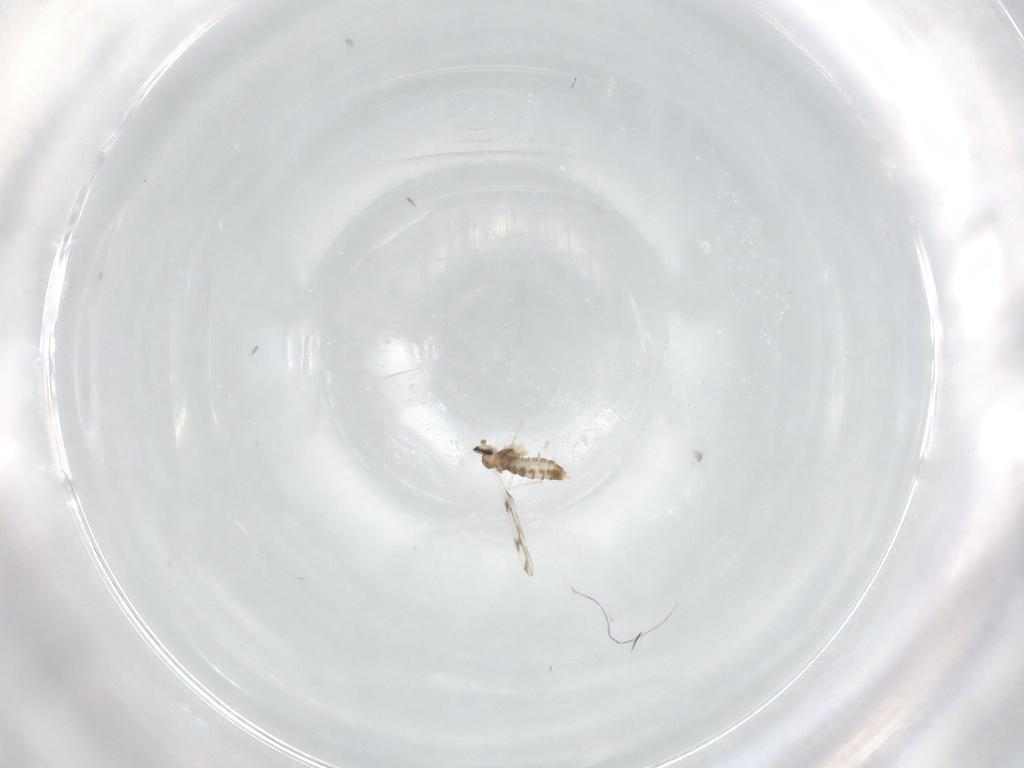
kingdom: Animalia
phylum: Arthropoda
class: Insecta
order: Diptera
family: Cecidomyiidae
